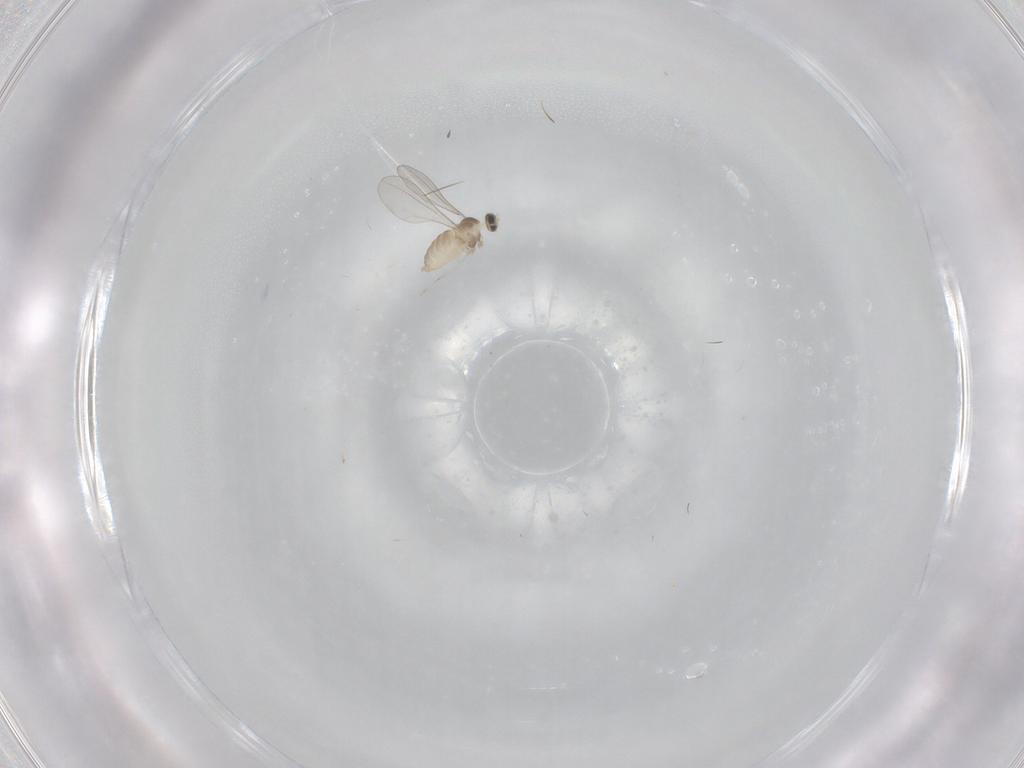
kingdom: Animalia
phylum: Arthropoda
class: Insecta
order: Diptera
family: Cecidomyiidae
